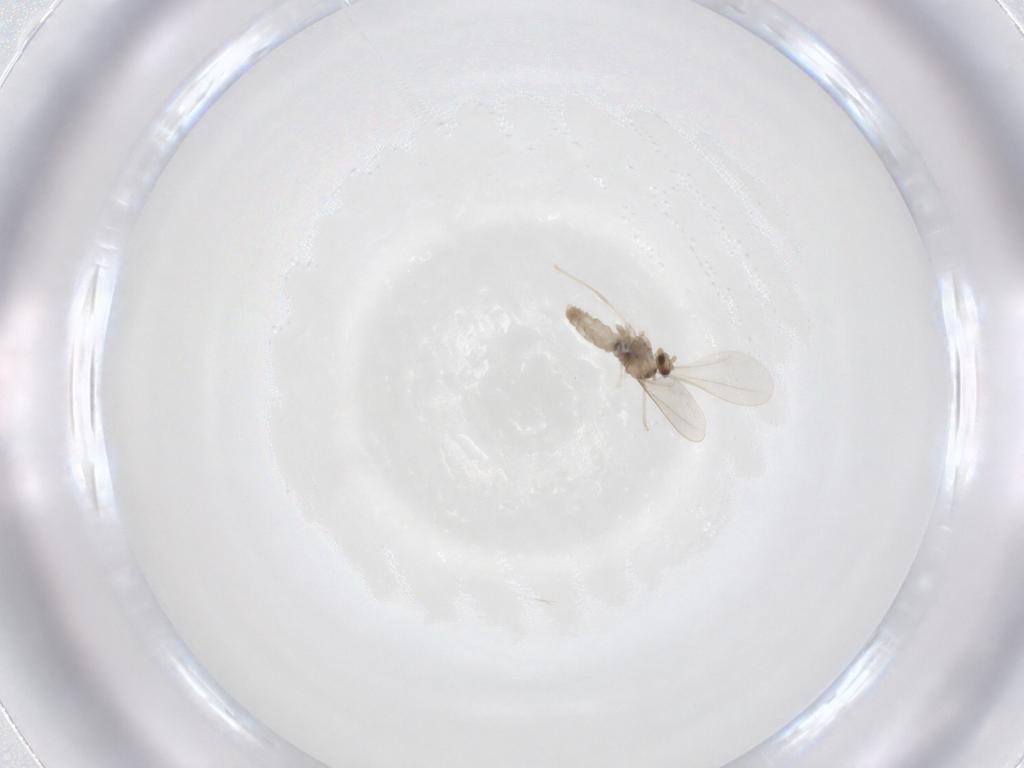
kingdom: Animalia
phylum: Arthropoda
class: Insecta
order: Diptera
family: Cecidomyiidae
